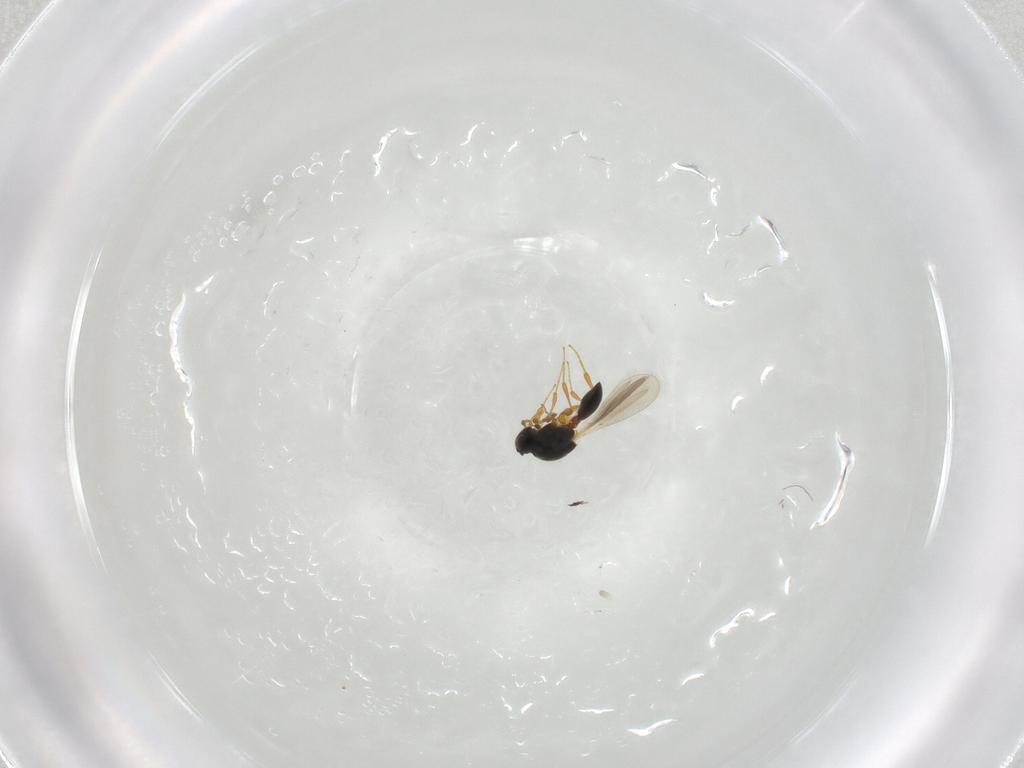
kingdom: Animalia
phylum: Arthropoda
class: Insecta
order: Hymenoptera
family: Platygastridae
